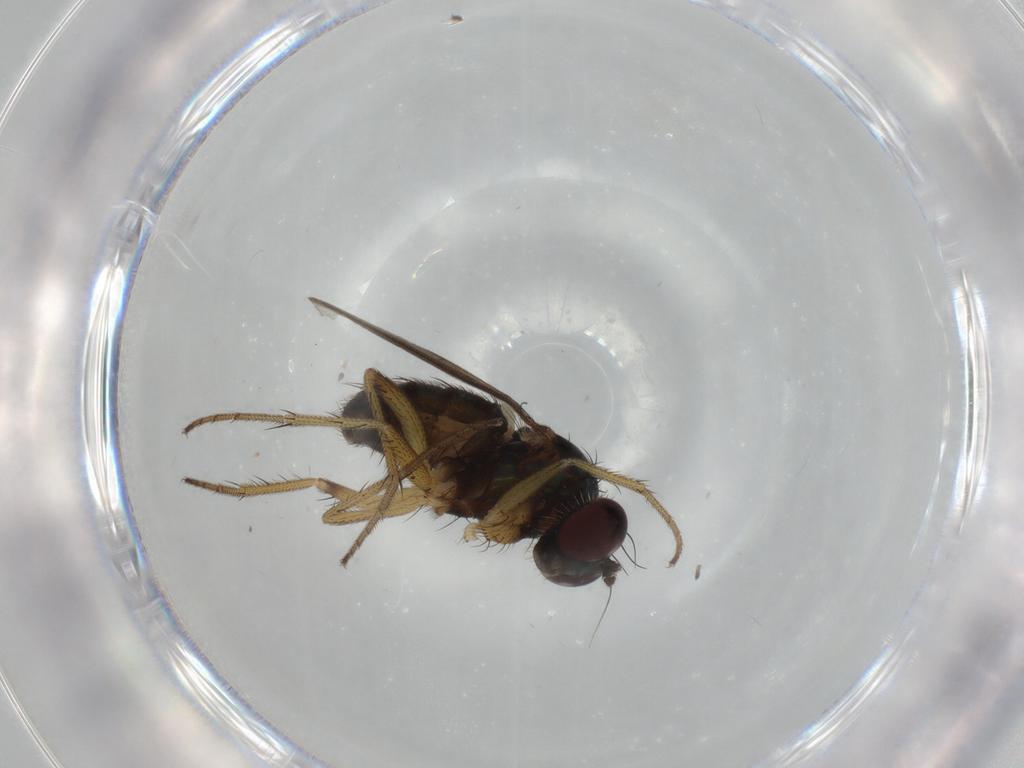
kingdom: Animalia
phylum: Arthropoda
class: Insecta
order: Diptera
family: Dolichopodidae
